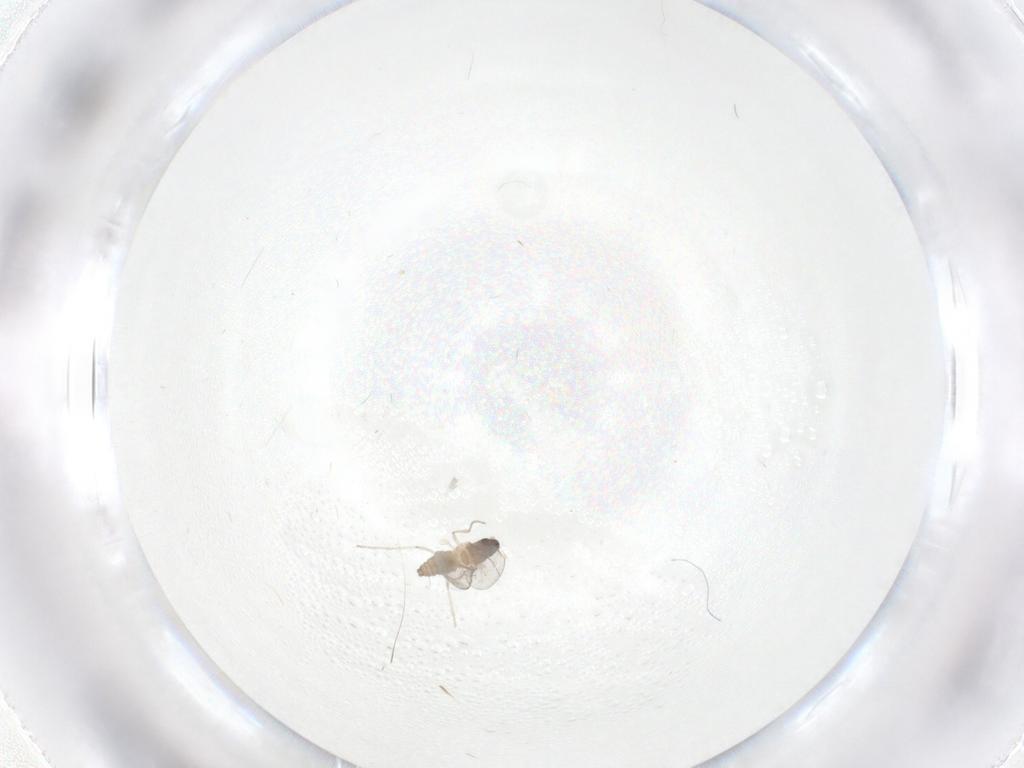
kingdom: Animalia
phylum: Arthropoda
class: Insecta
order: Diptera
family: Cecidomyiidae
